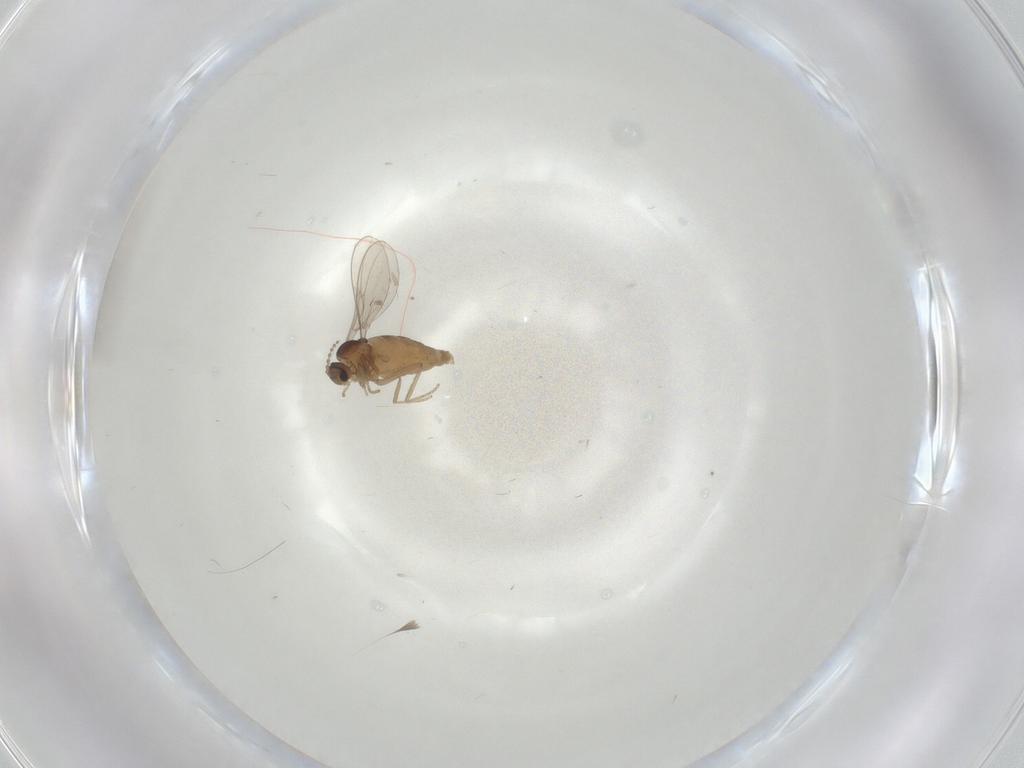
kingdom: Animalia
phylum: Arthropoda
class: Insecta
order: Diptera
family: Cecidomyiidae
